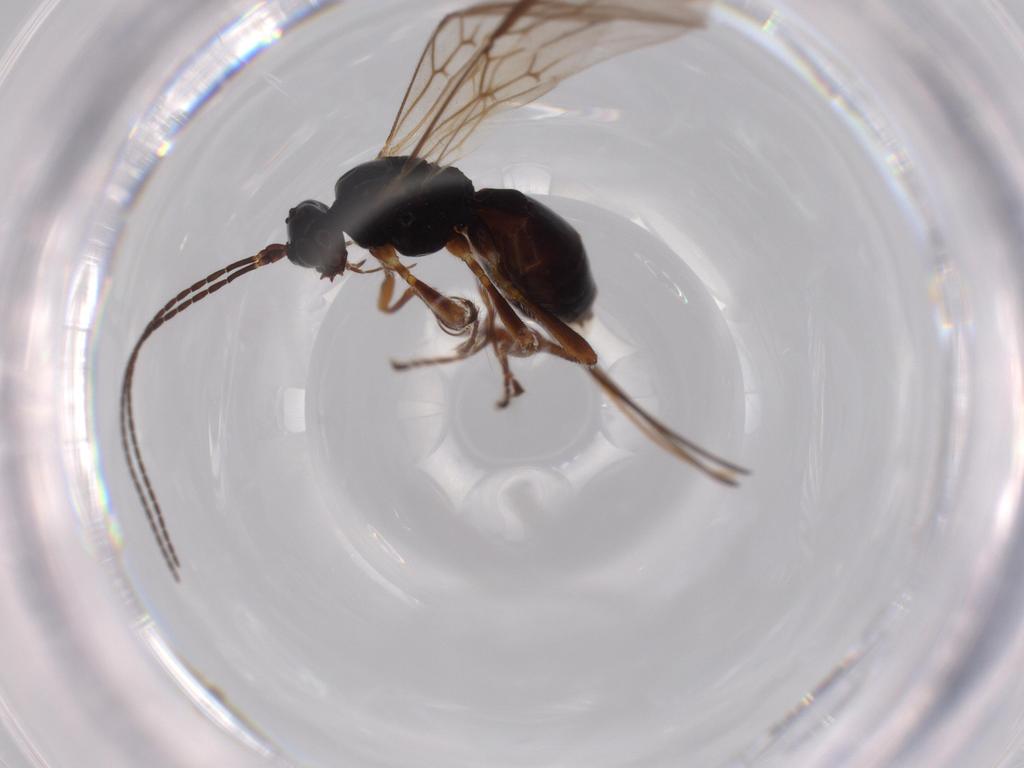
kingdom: Animalia
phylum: Arthropoda
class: Insecta
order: Hymenoptera
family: Braconidae
